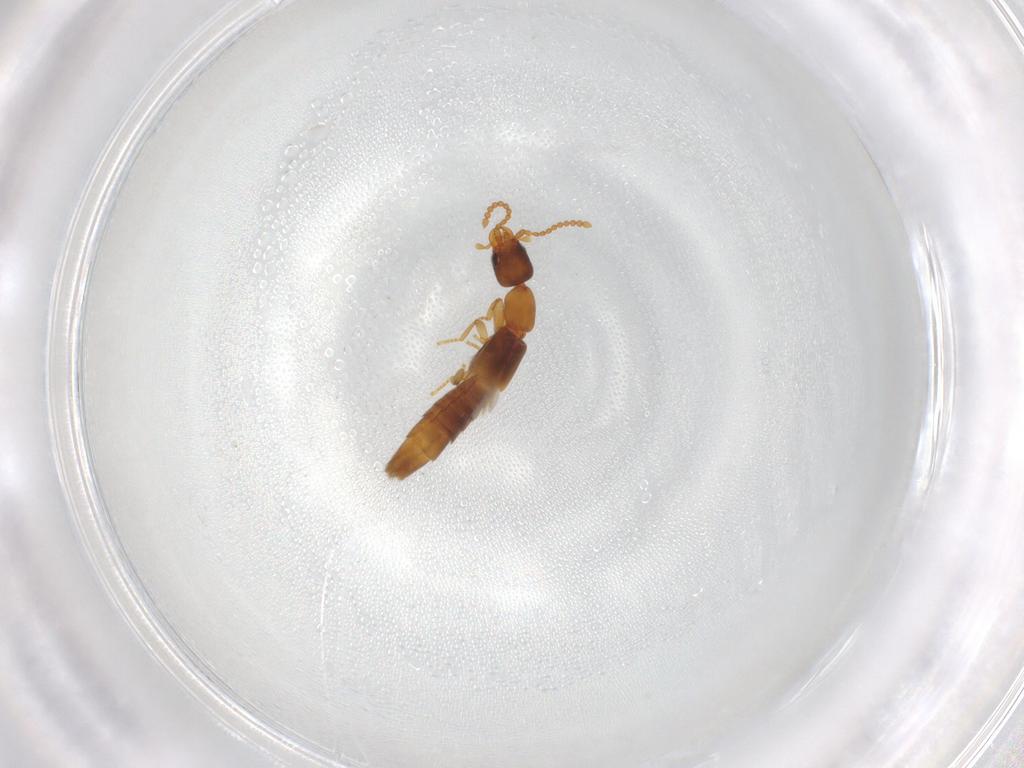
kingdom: Animalia
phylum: Arthropoda
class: Insecta
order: Coleoptera
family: Staphylinidae
